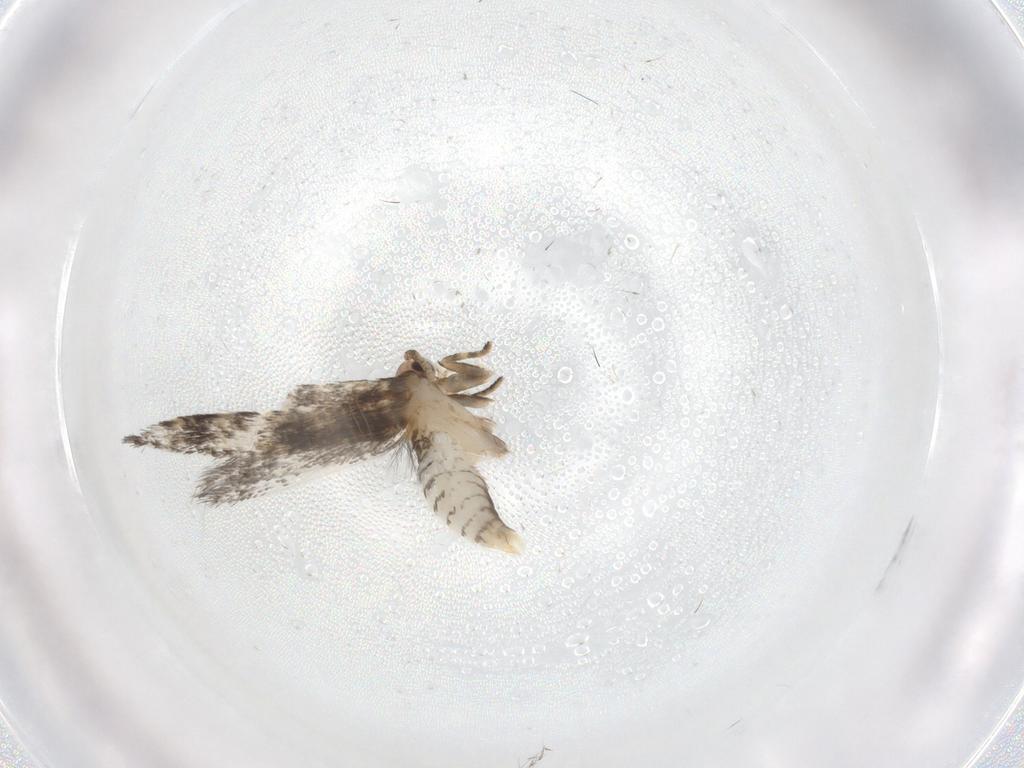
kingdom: Animalia
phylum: Arthropoda
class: Insecta
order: Lepidoptera
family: Tineidae
